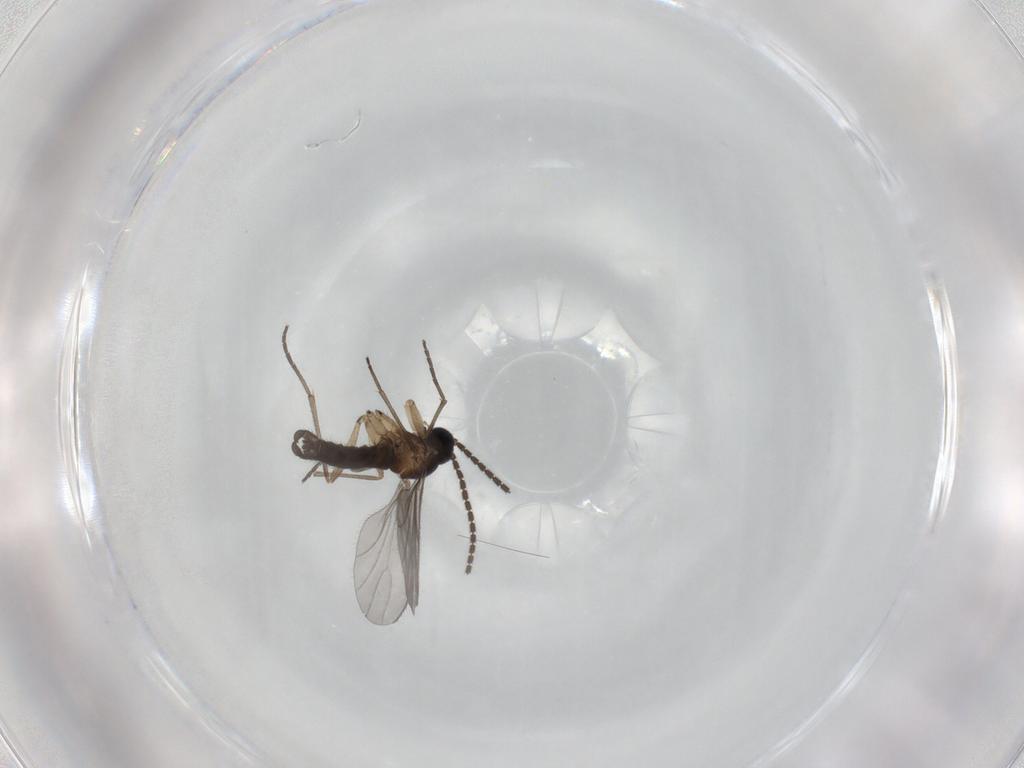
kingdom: Animalia
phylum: Arthropoda
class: Insecta
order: Diptera
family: Sciaridae
